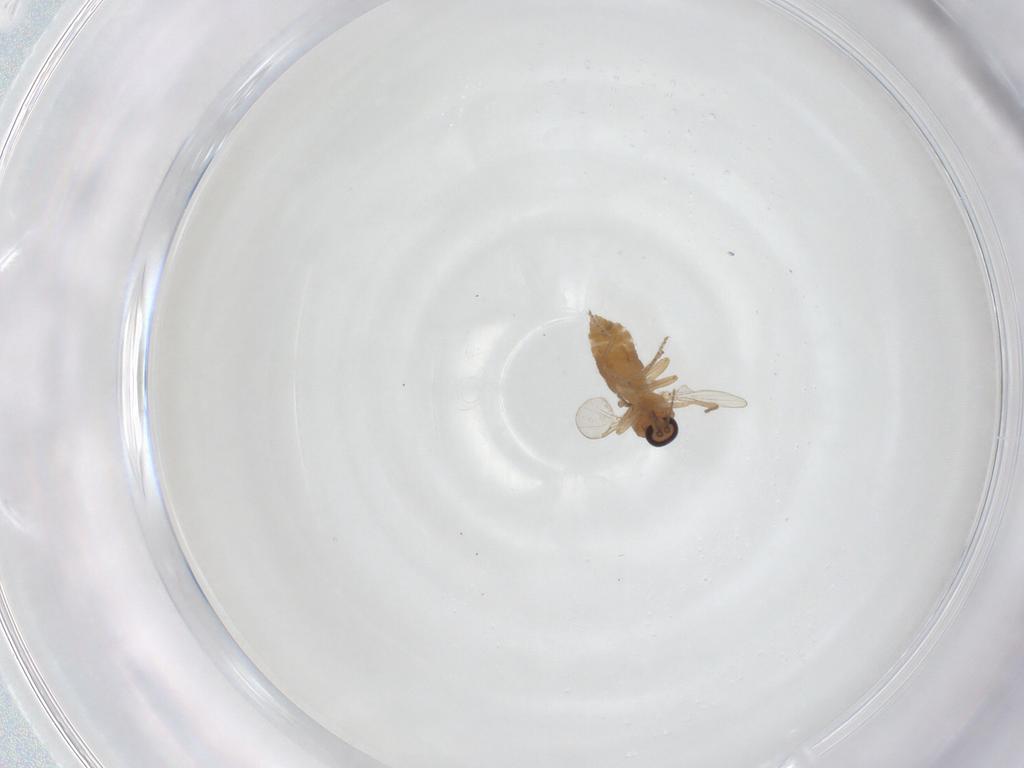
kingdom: Animalia
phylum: Arthropoda
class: Insecta
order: Diptera
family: Ceratopogonidae
